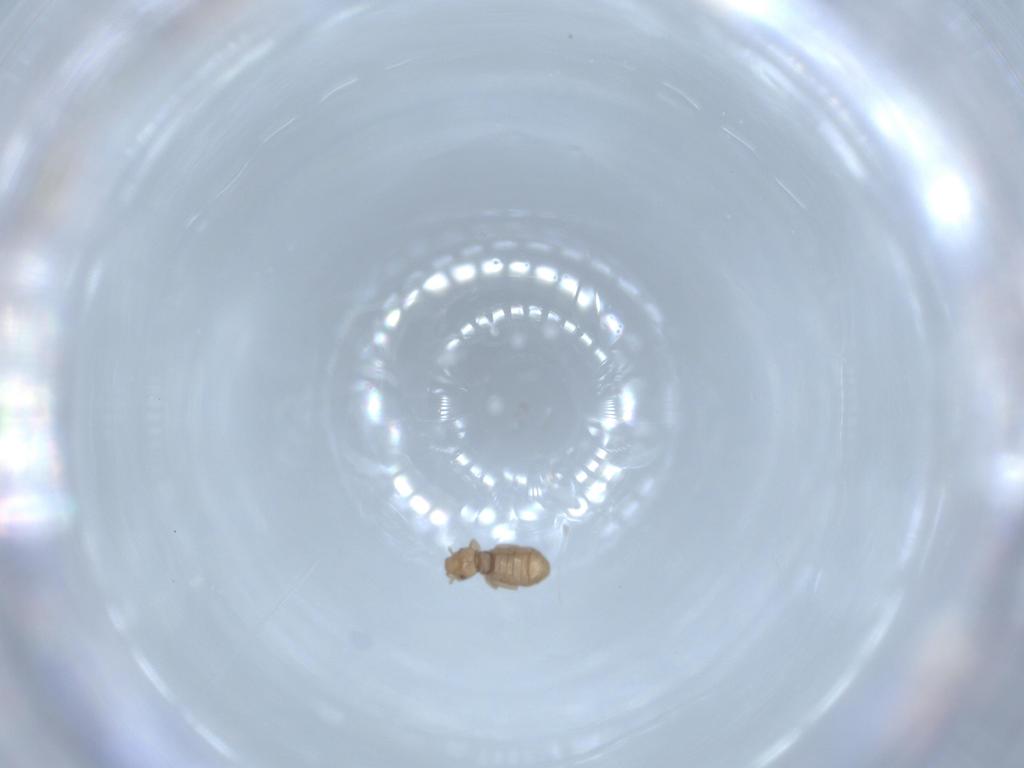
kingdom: Animalia
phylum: Arthropoda
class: Insecta
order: Psocodea
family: Liposcelididae
